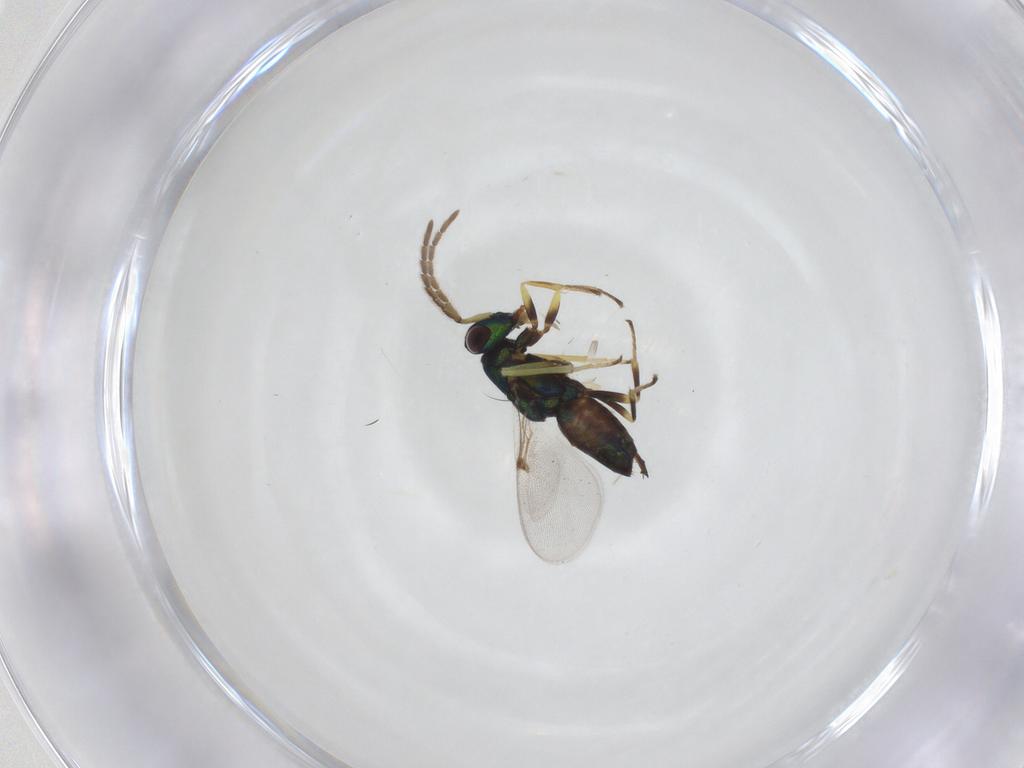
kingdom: Animalia
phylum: Arthropoda
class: Insecta
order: Hymenoptera
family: Encyrtidae
